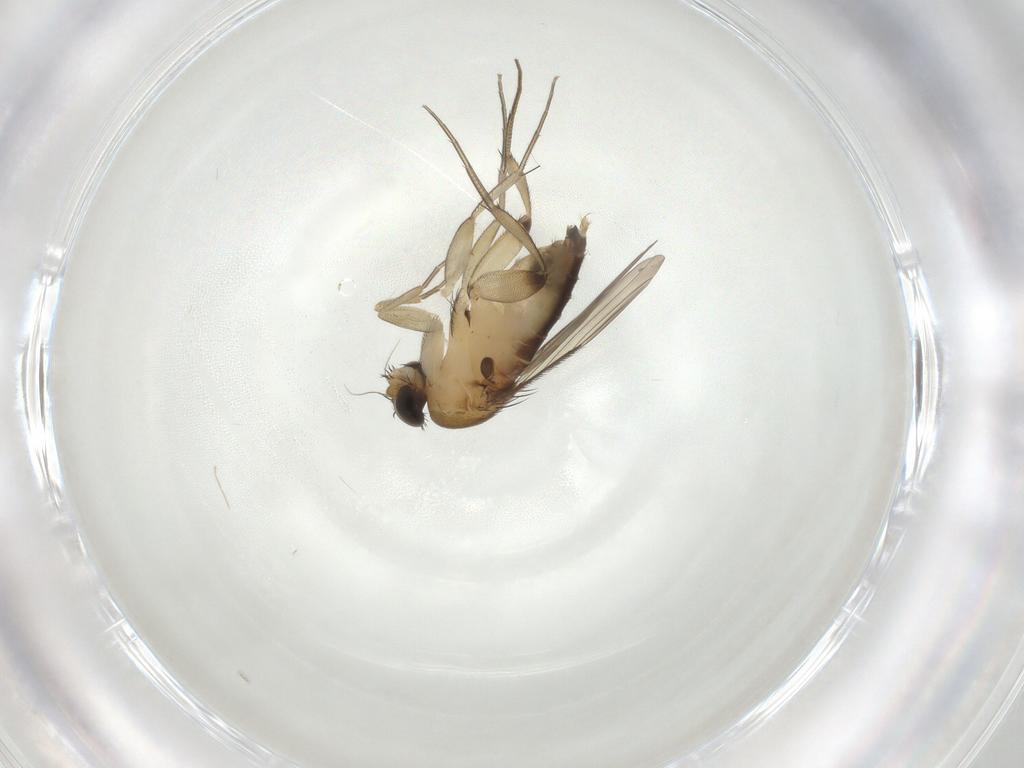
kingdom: Animalia
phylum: Arthropoda
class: Insecta
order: Diptera
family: Phoridae
